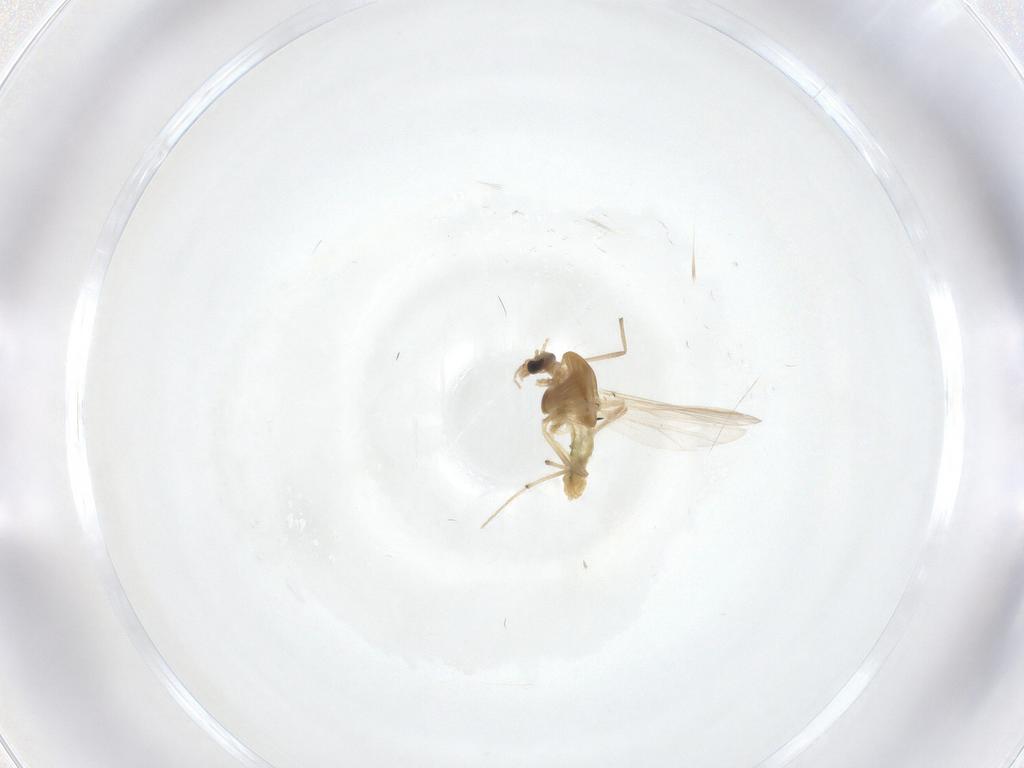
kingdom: Animalia
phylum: Arthropoda
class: Insecta
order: Diptera
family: Chironomidae
